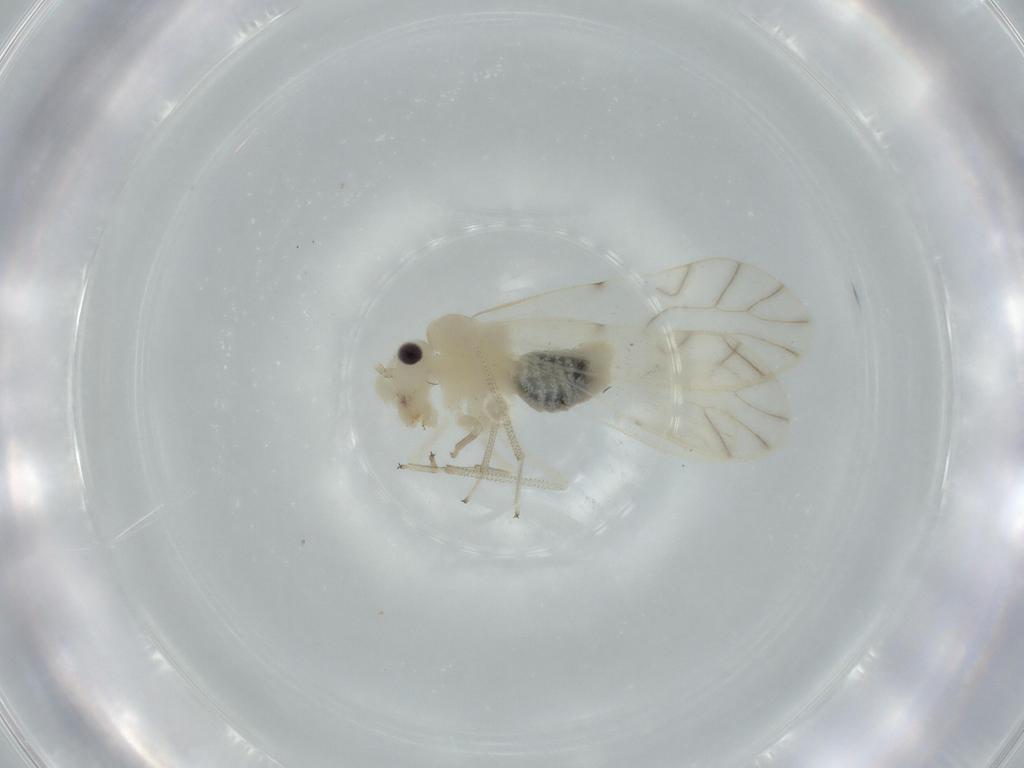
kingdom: Animalia
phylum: Arthropoda
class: Insecta
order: Psocodea
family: Caeciliusidae
